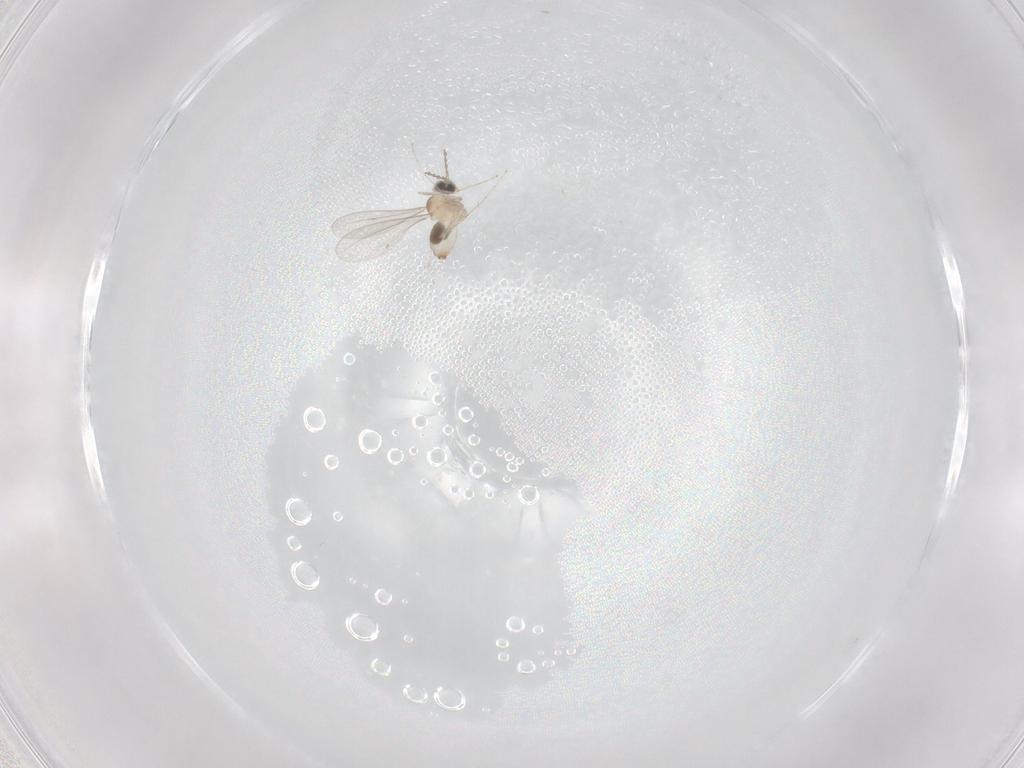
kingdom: Animalia
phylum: Arthropoda
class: Insecta
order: Diptera
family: Cecidomyiidae
